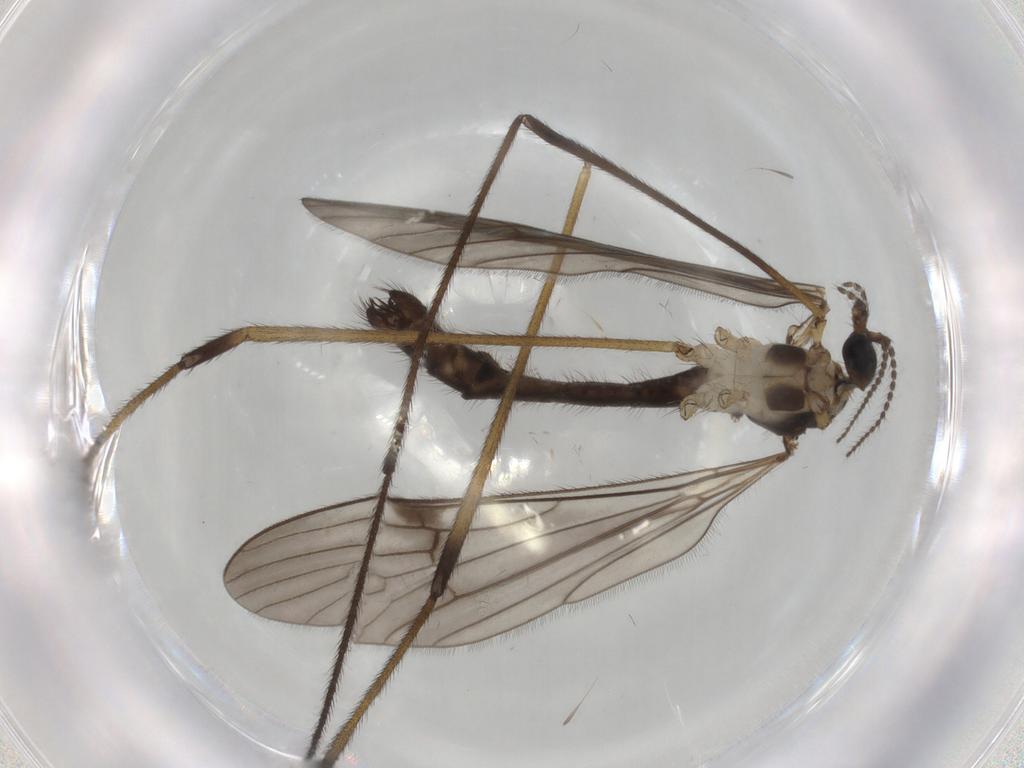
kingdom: Animalia
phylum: Arthropoda
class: Insecta
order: Diptera
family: Limoniidae
